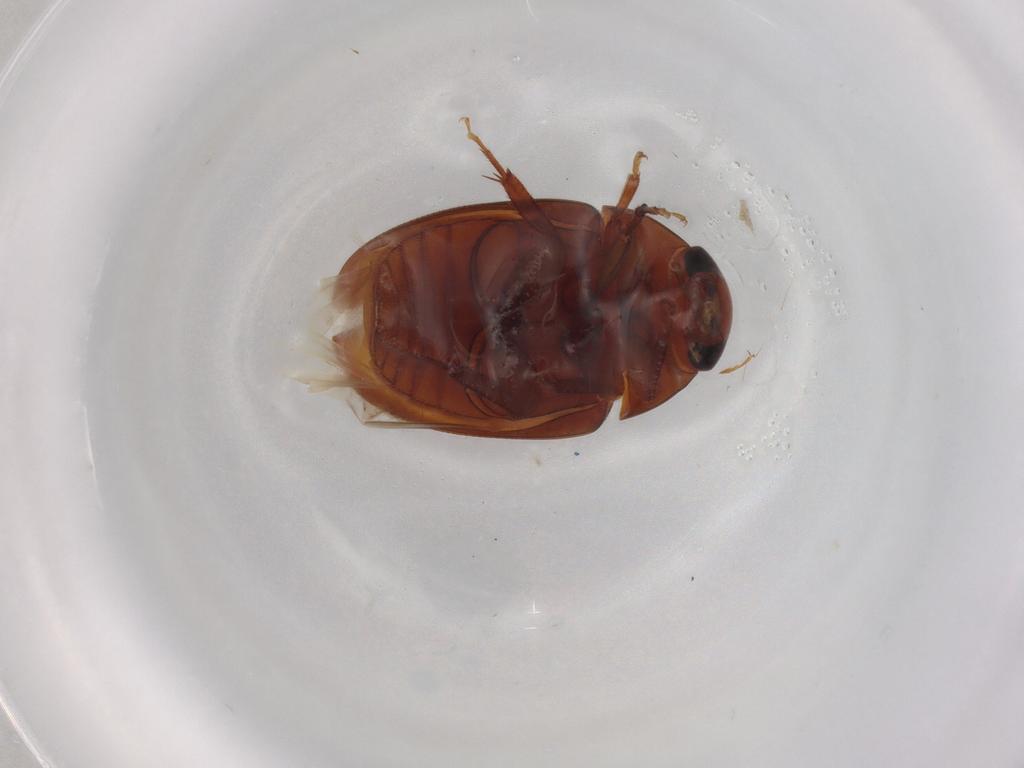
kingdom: Animalia
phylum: Arthropoda
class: Insecta
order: Coleoptera
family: Phalacridae
